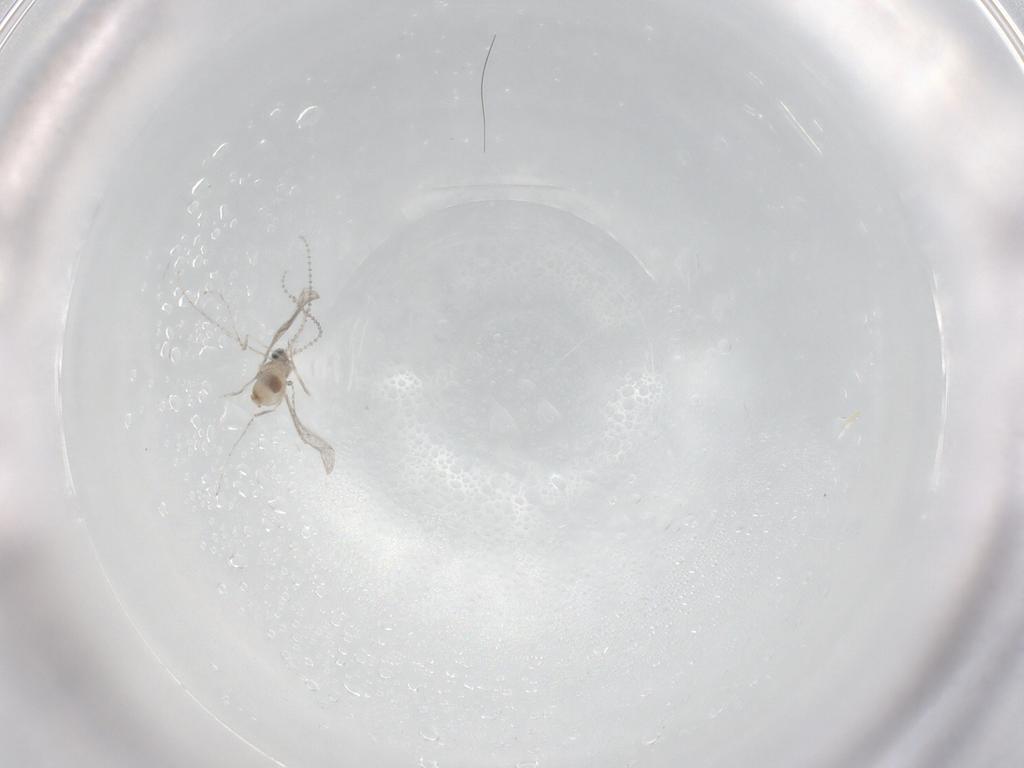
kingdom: Animalia
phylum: Arthropoda
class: Insecta
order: Diptera
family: Cecidomyiidae
